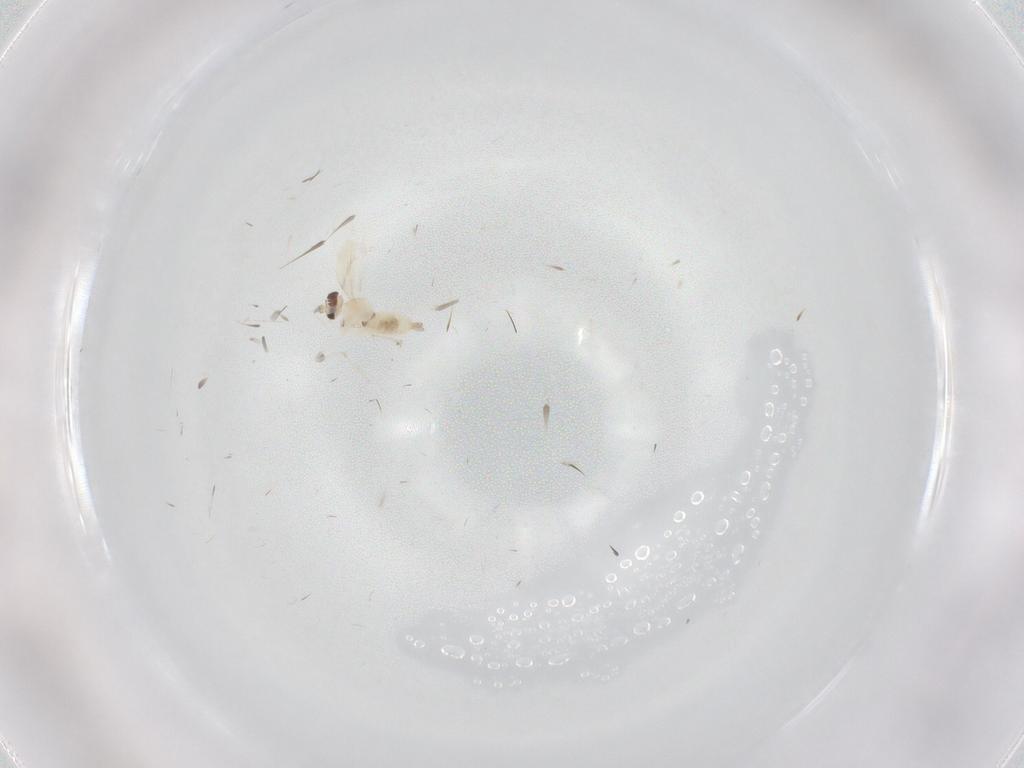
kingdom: Animalia
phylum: Arthropoda
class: Insecta
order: Diptera
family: Cecidomyiidae
